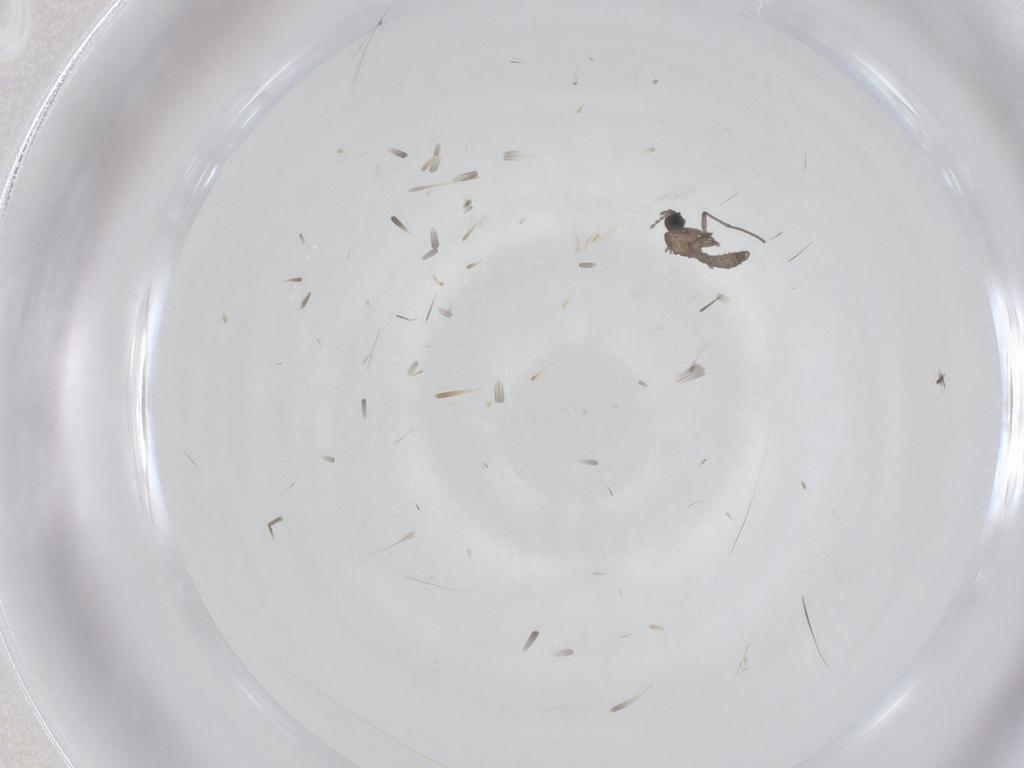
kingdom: Animalia
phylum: Arthropoda
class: Insecta
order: Diptera
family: Sciaridae
